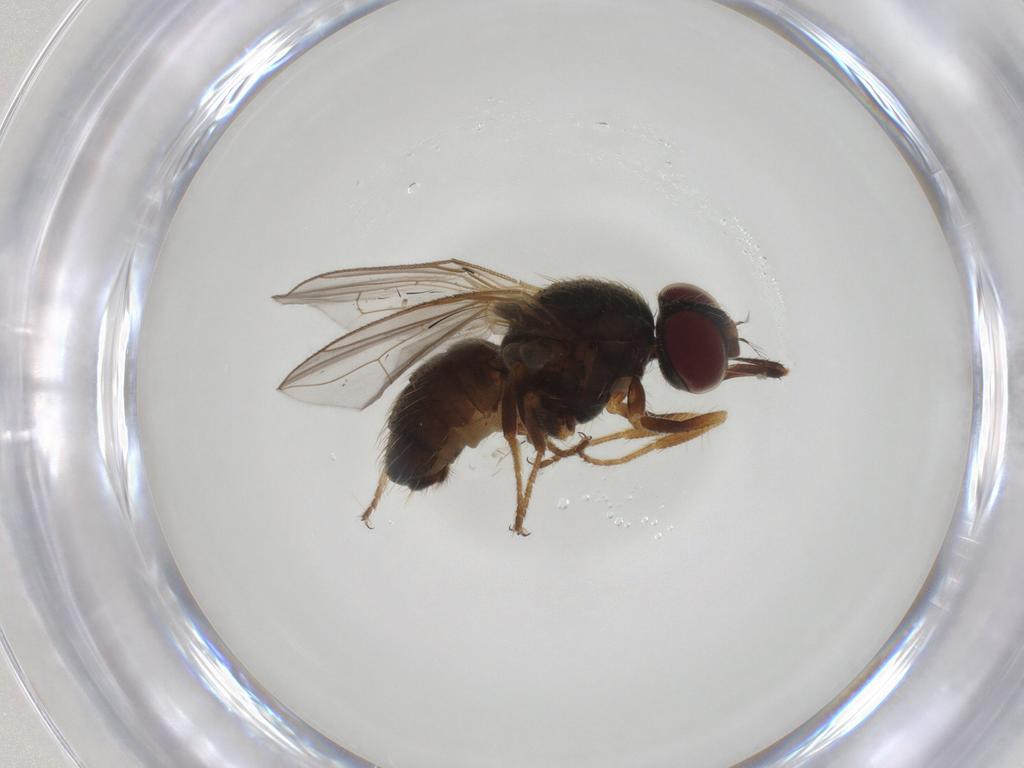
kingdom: Animalia
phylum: Arthropoda
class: Insecta
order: Diptera
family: Muscidae
